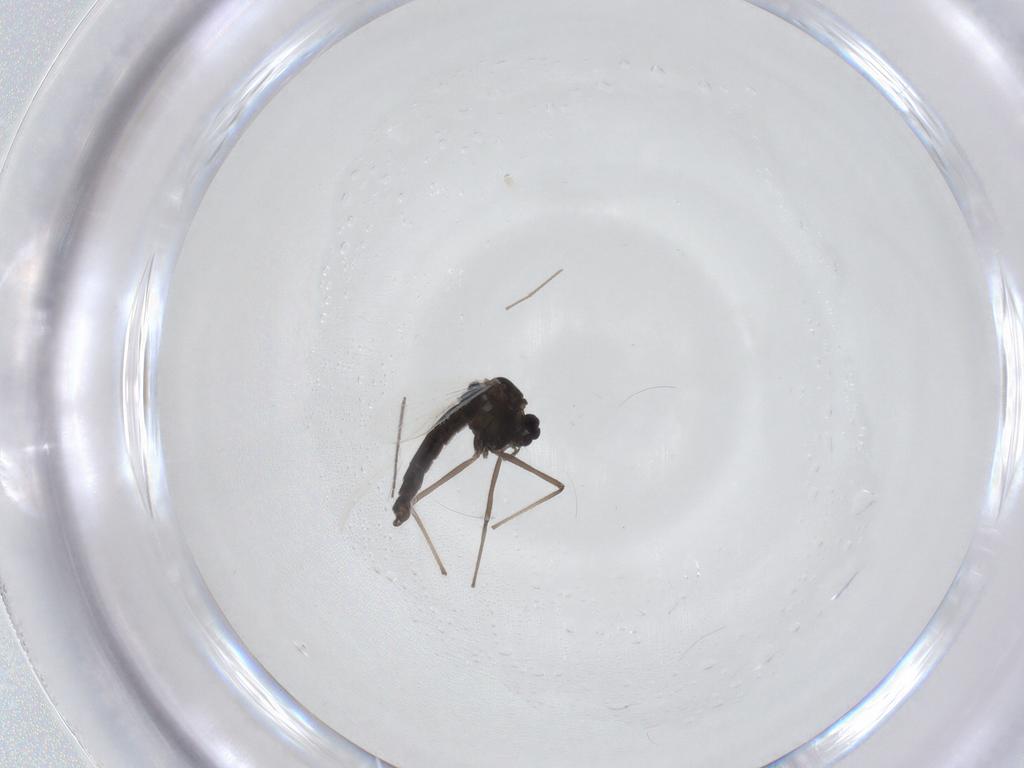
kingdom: Animalia
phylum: Arthropoda
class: Insecta
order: Diptera
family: Chironomidae
